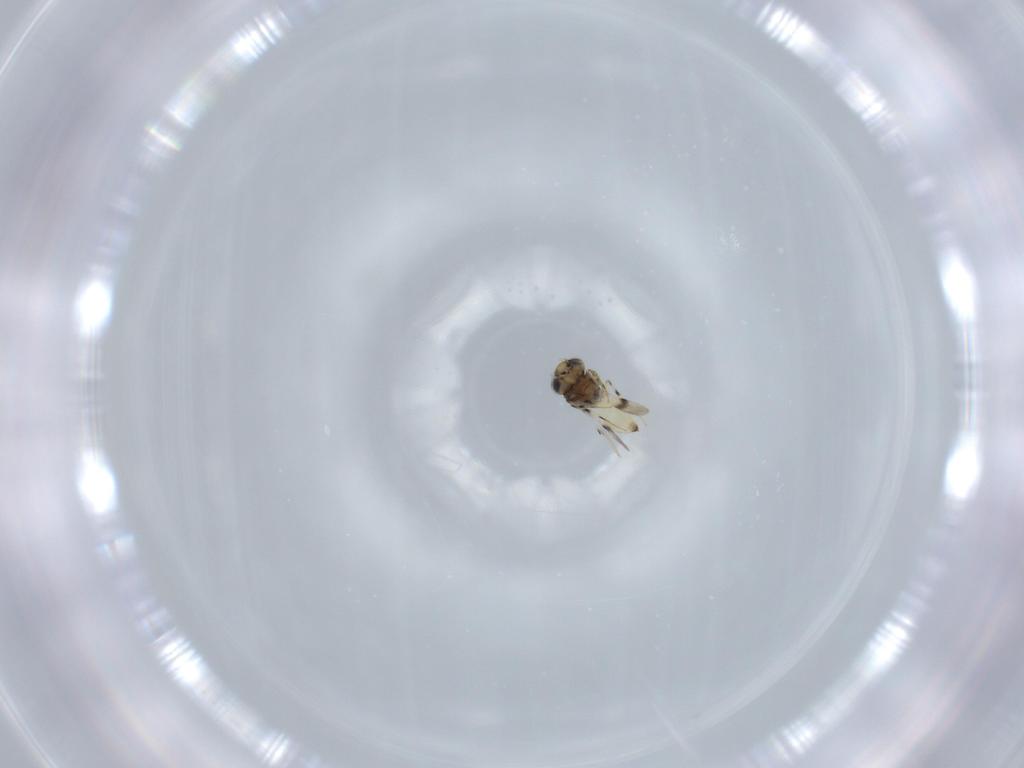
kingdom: Animalia
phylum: Arthropoda
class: Insecta
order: Hymenoptera
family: Scelionidae
